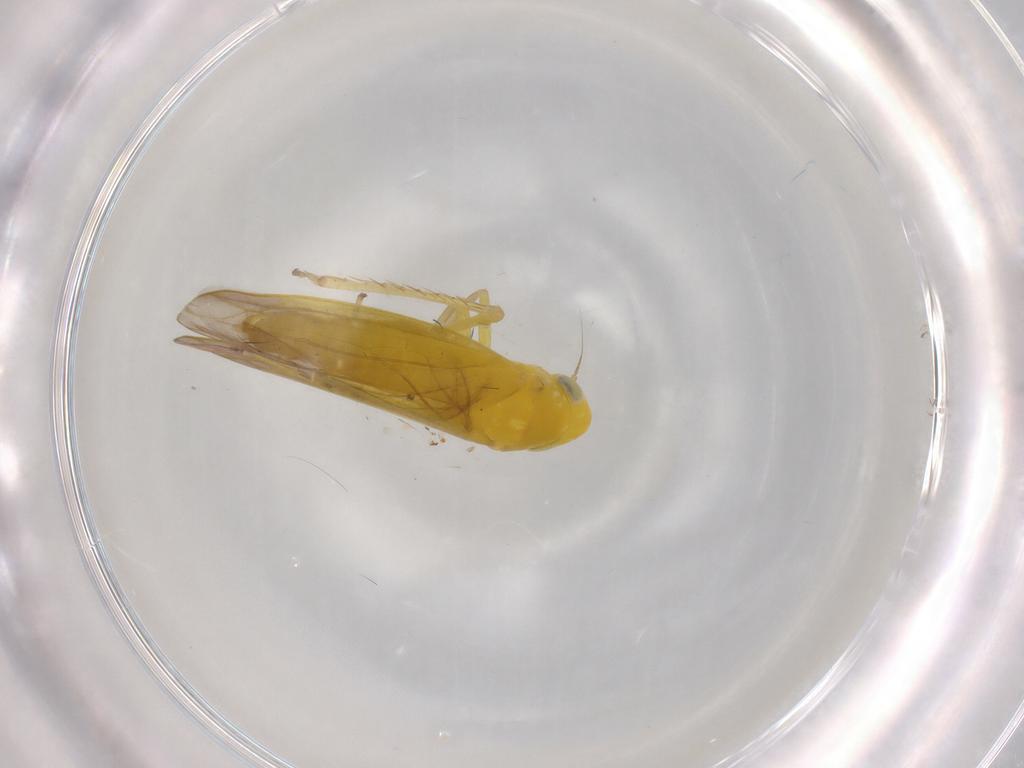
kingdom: Animalia
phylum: Arthropoda
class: Insecta
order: Hemiptera
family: Cicadellidae
